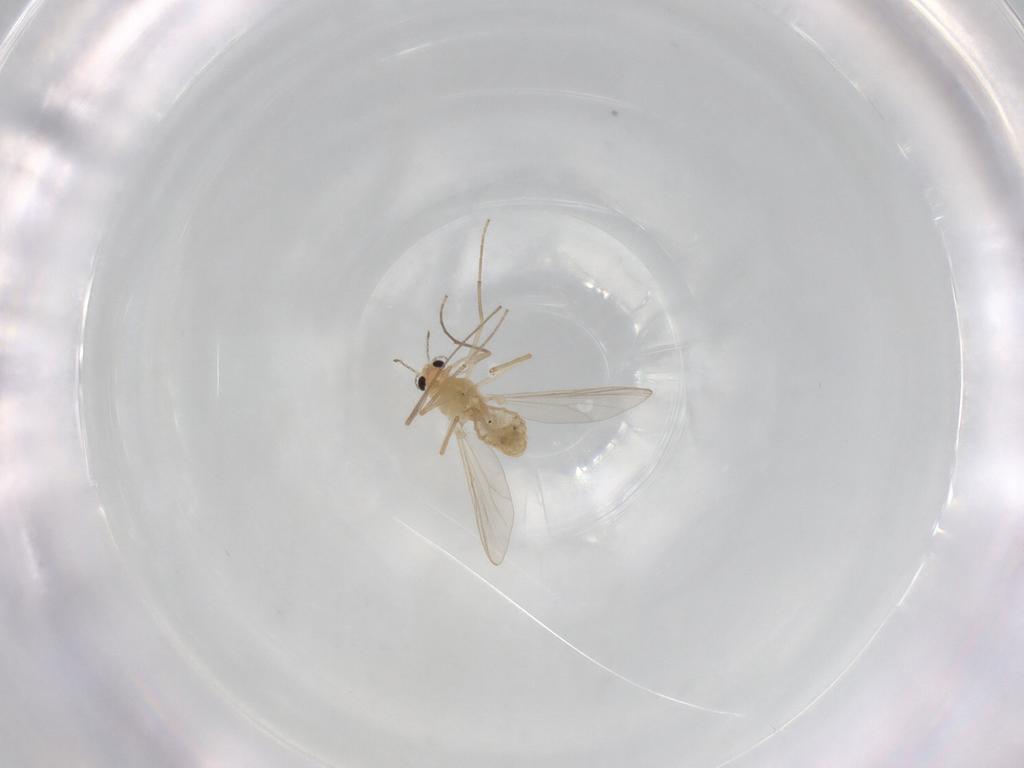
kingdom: Animalia
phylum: Arthropoda
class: Insecta
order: Diptera
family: Chironomidae
